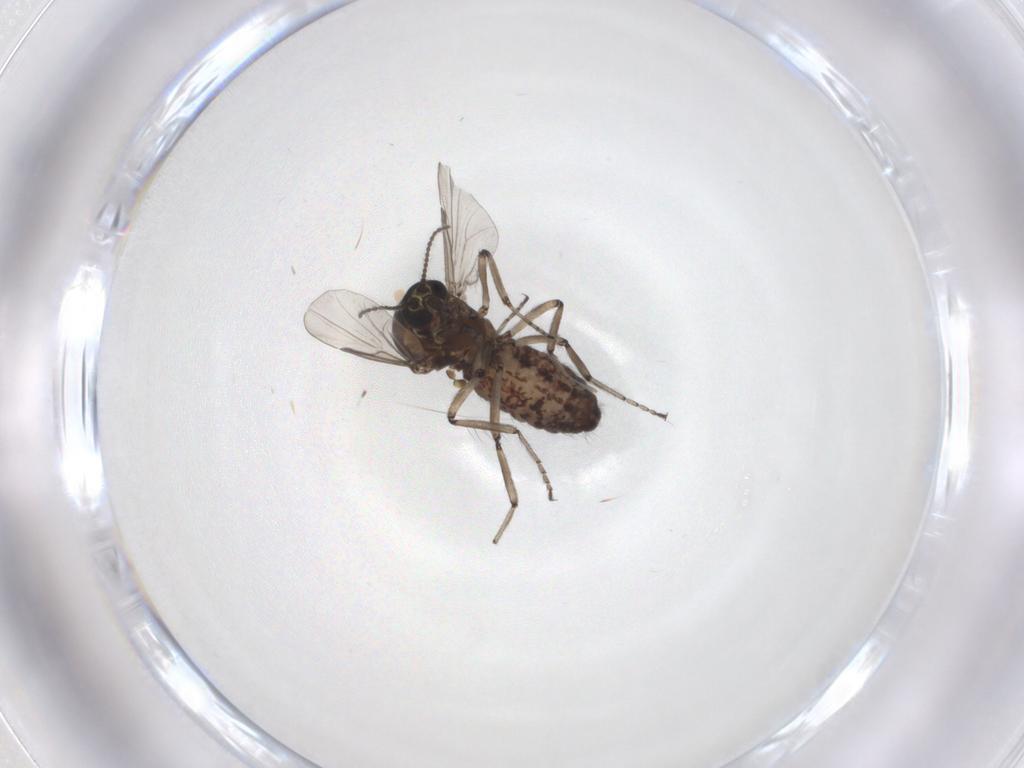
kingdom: Animalia
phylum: Arthropoda
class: Insecta
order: Diptera
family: Ceratopogonidae
